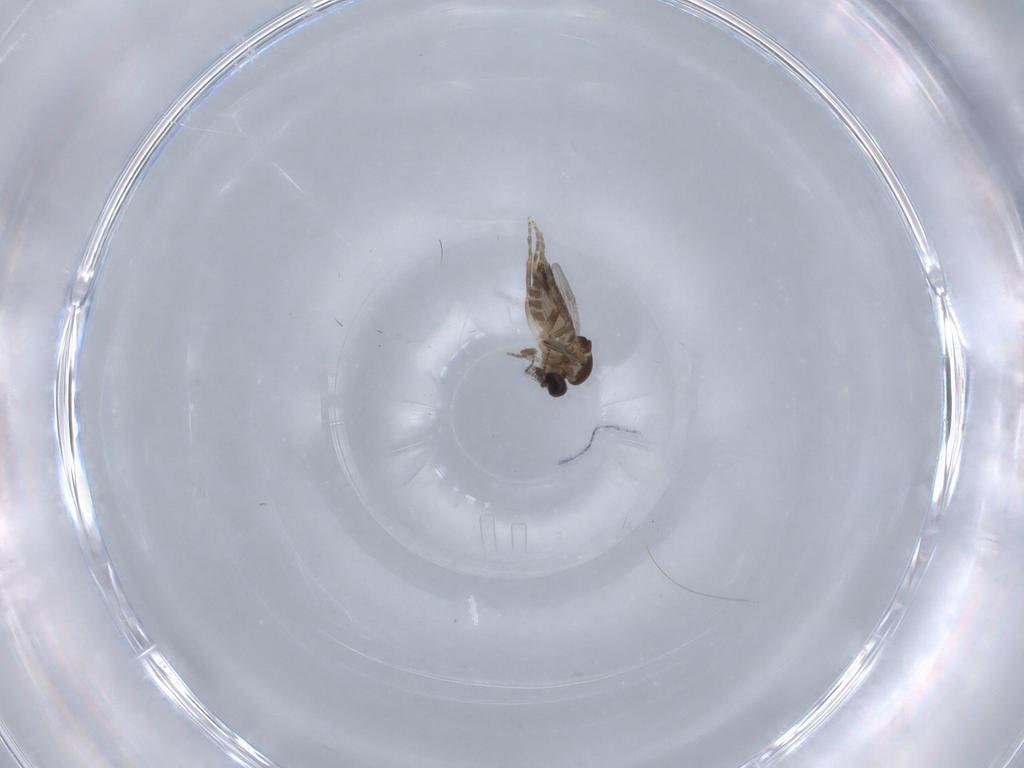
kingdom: Animalia
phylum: Arthropoda
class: Insecta
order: Diptera
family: Ceratopogonidae
